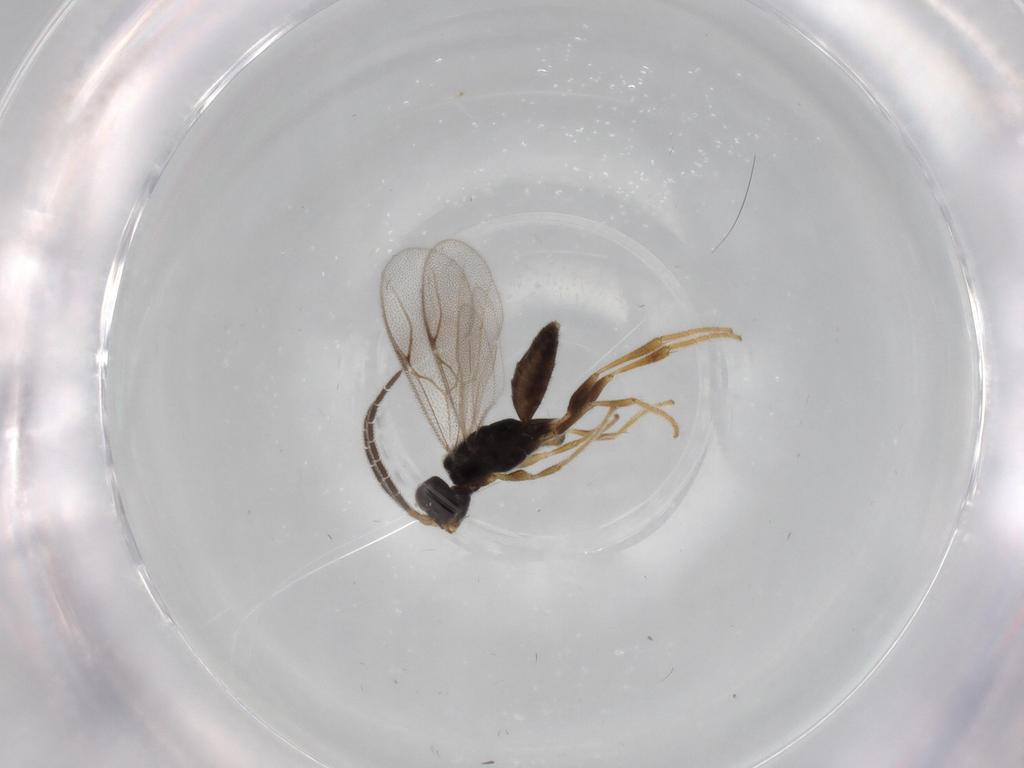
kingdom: Animalia
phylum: Arthropoda
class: Insecta
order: Hymenoptera
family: Dryinidae
